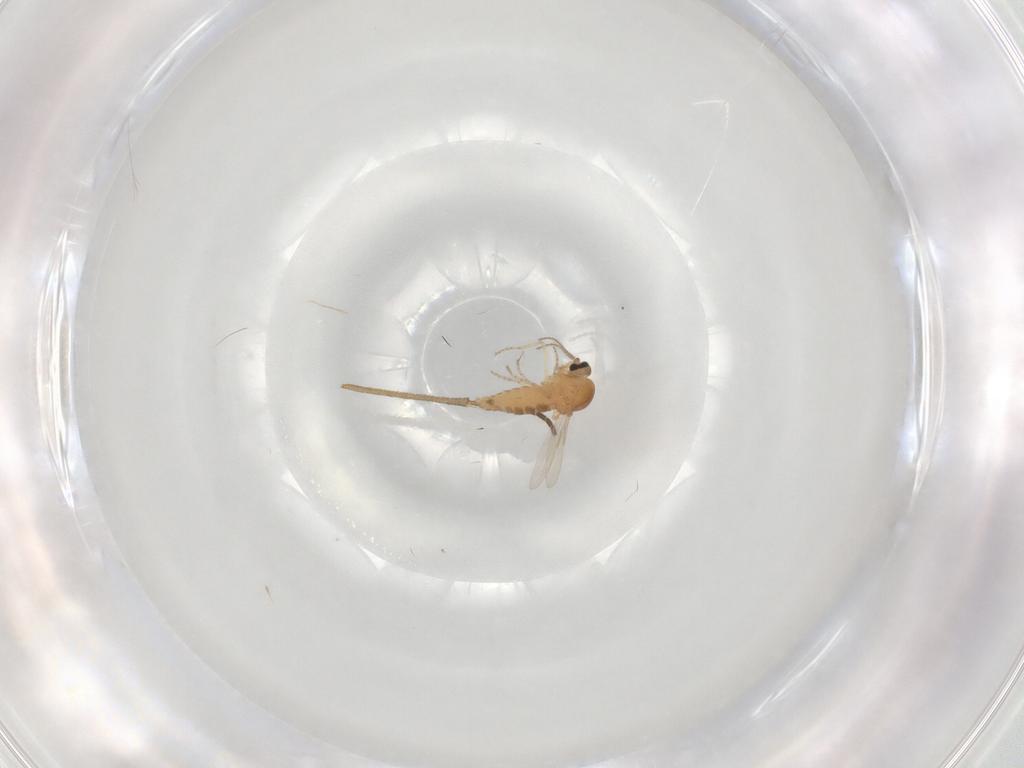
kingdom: Animalia
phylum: Arthropoda
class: Insecta
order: Diptera
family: Ceratopogonidae
